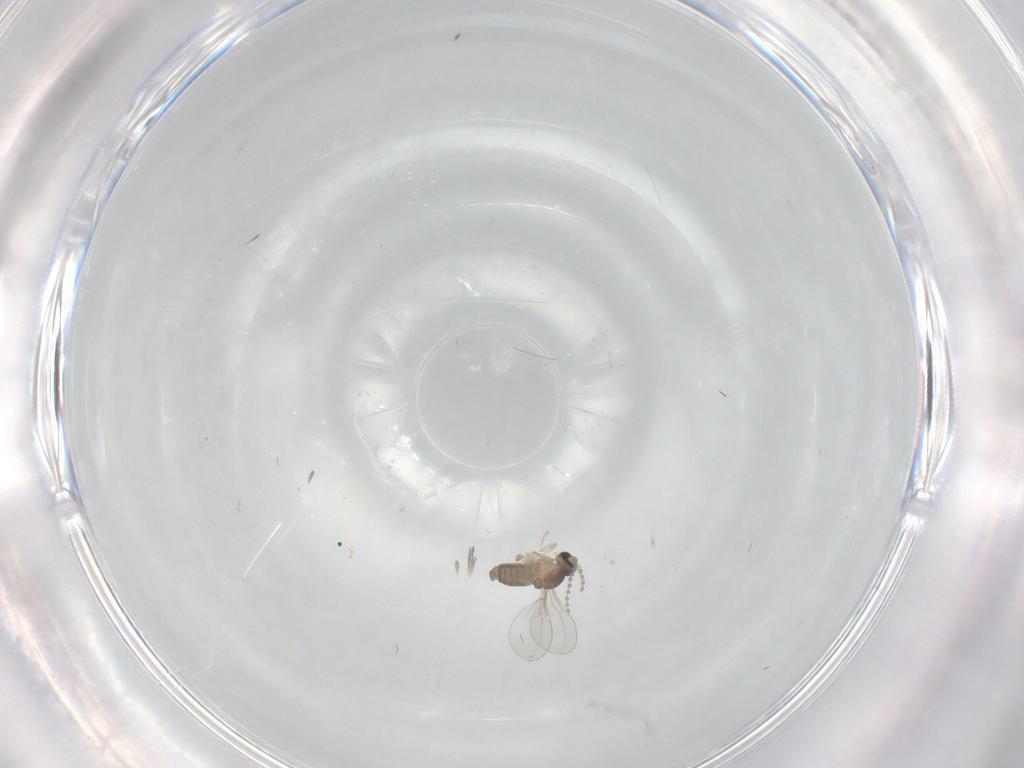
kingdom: Animalia
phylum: Arthropoda
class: Insecta
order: Diptera
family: Cecidomyiidae
